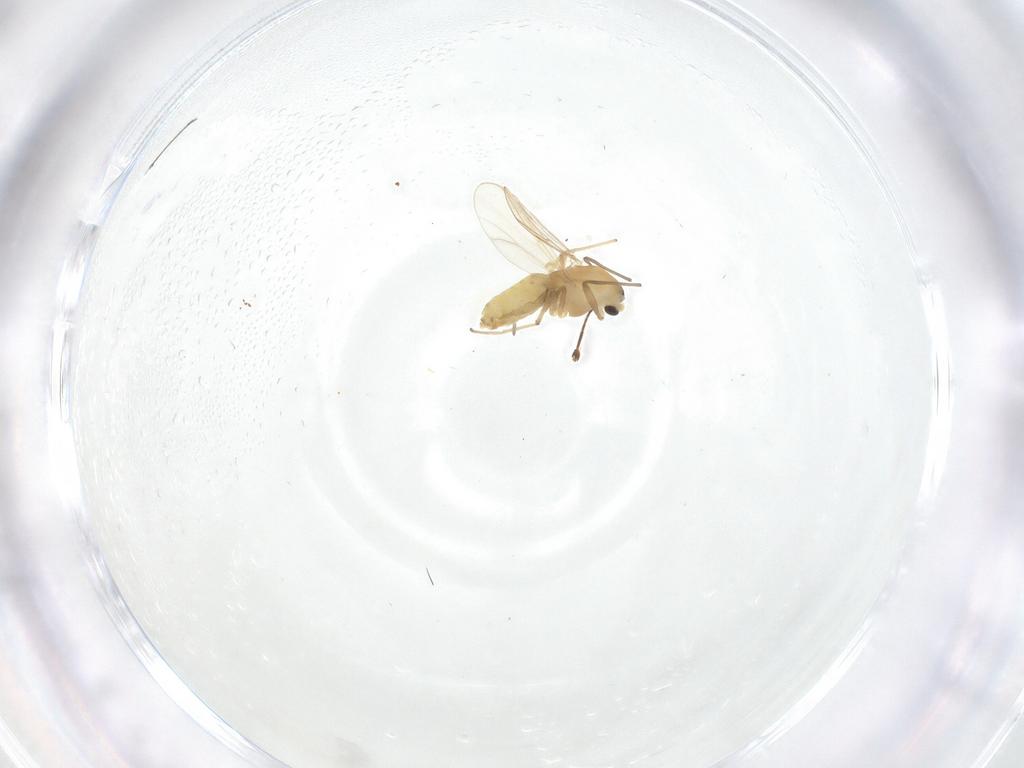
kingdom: Animalia
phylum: Arthropoda
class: Insecta
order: Diptera
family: Chironomidae
